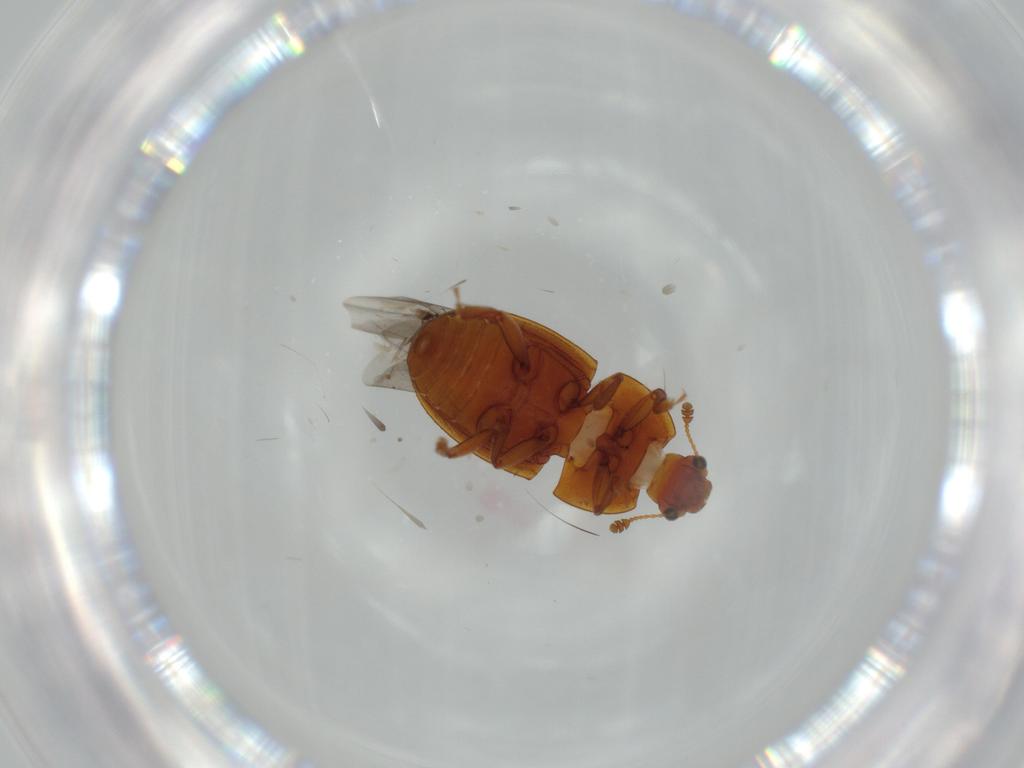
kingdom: Animalia
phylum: Arthropoda
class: Insecta
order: Coleoptera
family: Nitidulidae
